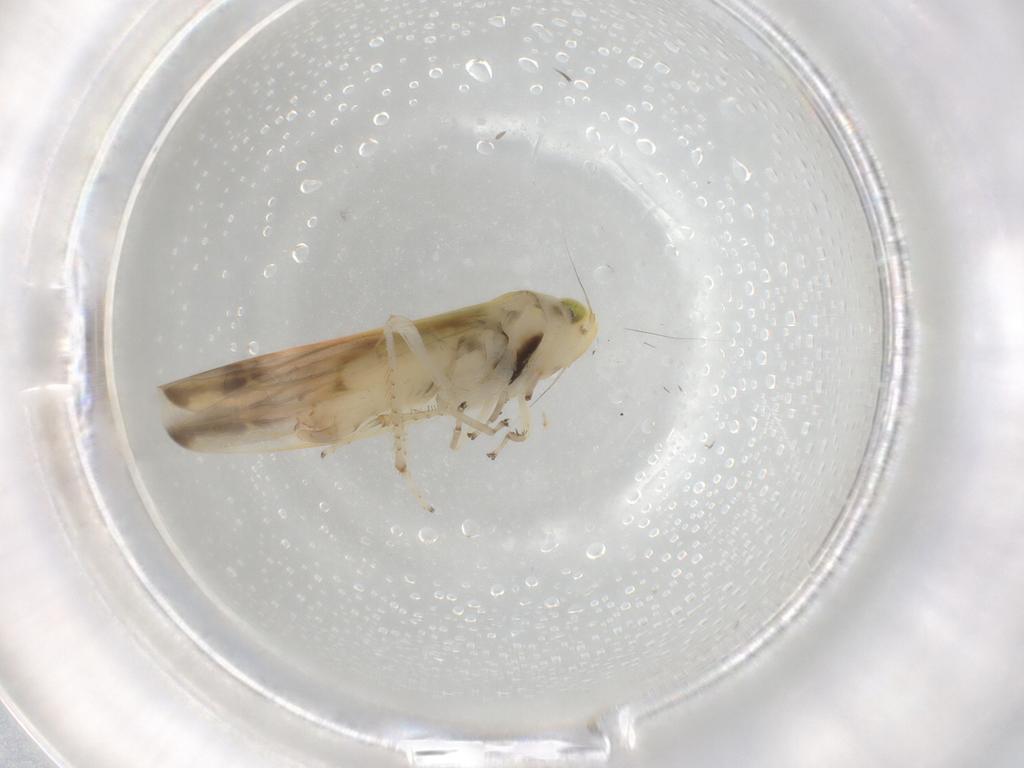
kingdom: Animalia
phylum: Arthropoda
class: Insecta
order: Hemiptera
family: Cicadellidae
